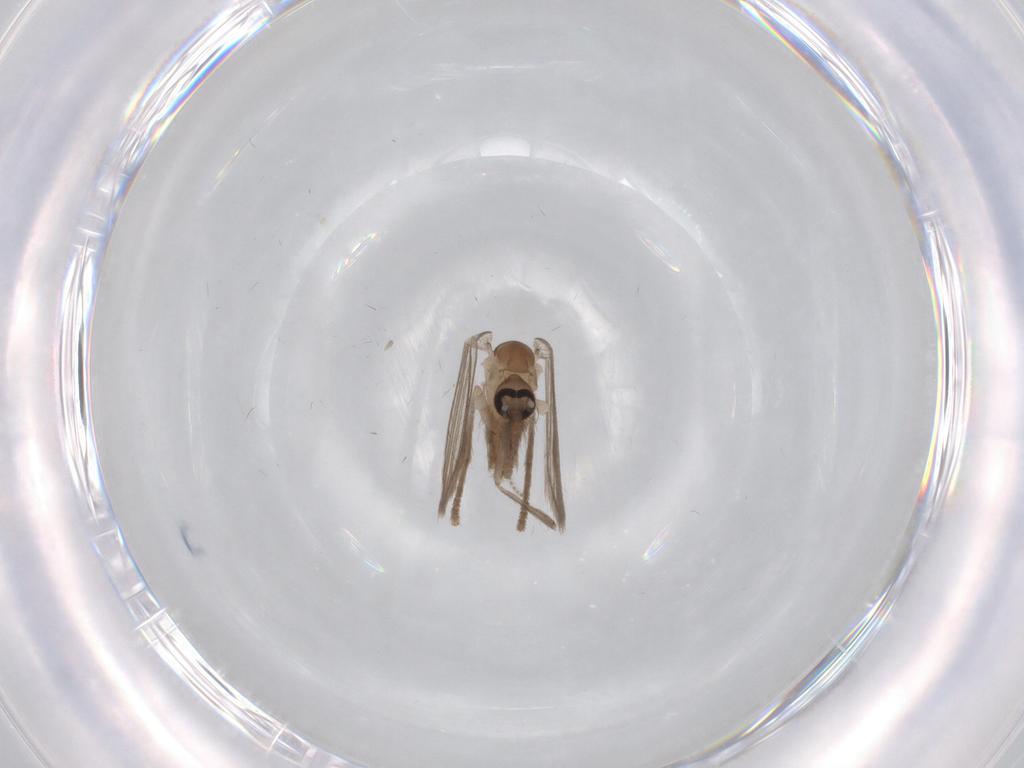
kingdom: Animalia
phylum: Arthropoda
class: Insecta
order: Diptera
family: Psychodidae
